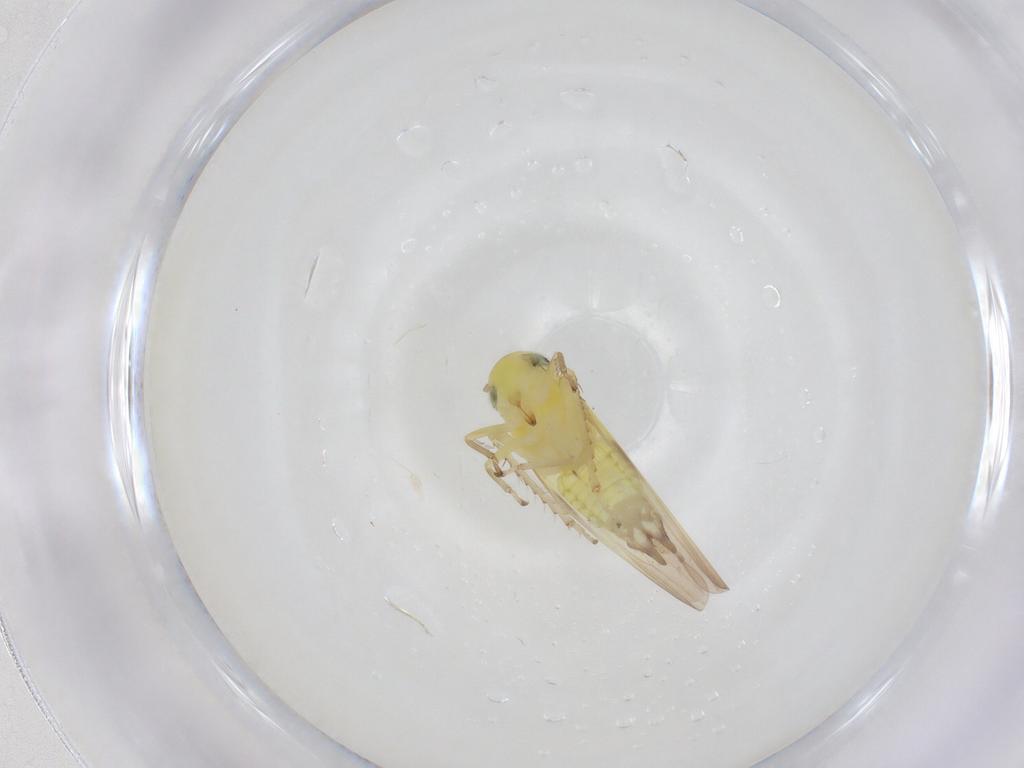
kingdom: Animalia
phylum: Arthropoda
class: Insecta
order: Hemiptera
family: Cicadellidae
